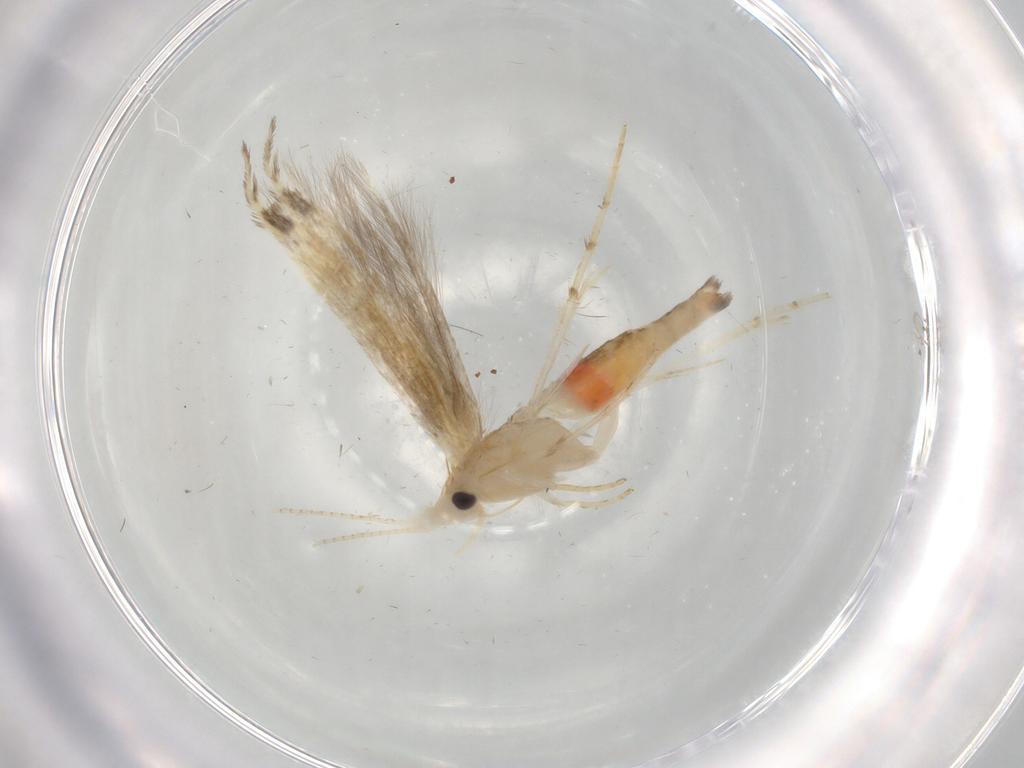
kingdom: Animalia
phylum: Arthropoda
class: Insecta
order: Lepidoptera
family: Lyonetiidae
